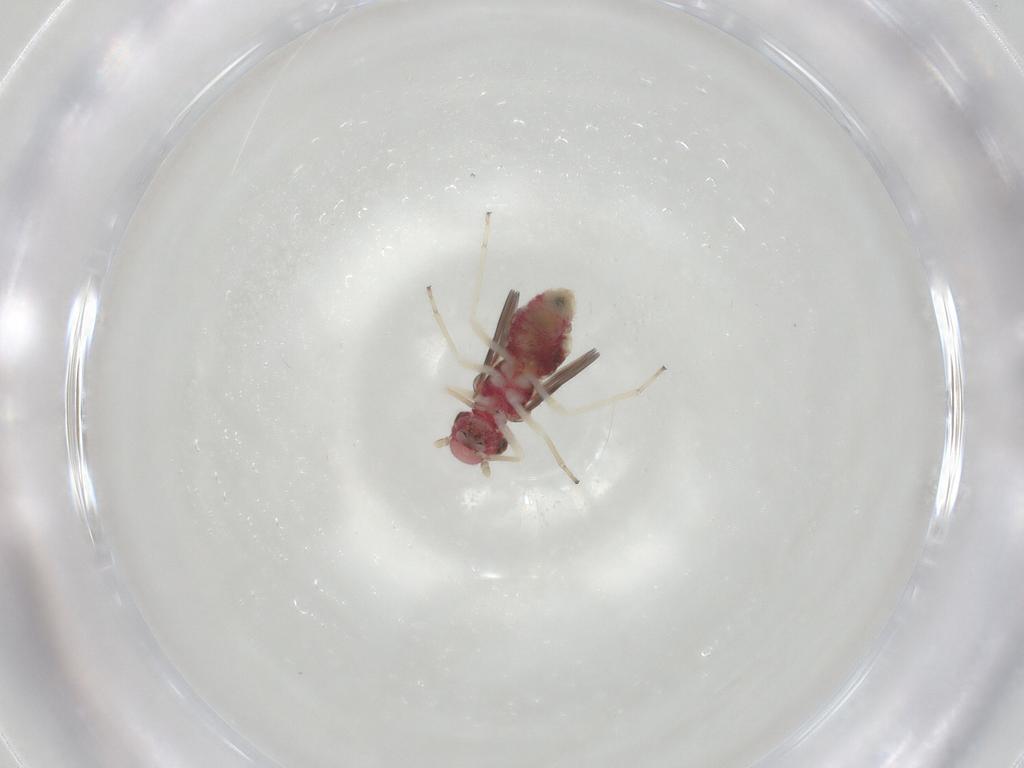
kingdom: Animalia
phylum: Arthropoda
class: Insecta
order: Psocodea
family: Caeciliusidae
